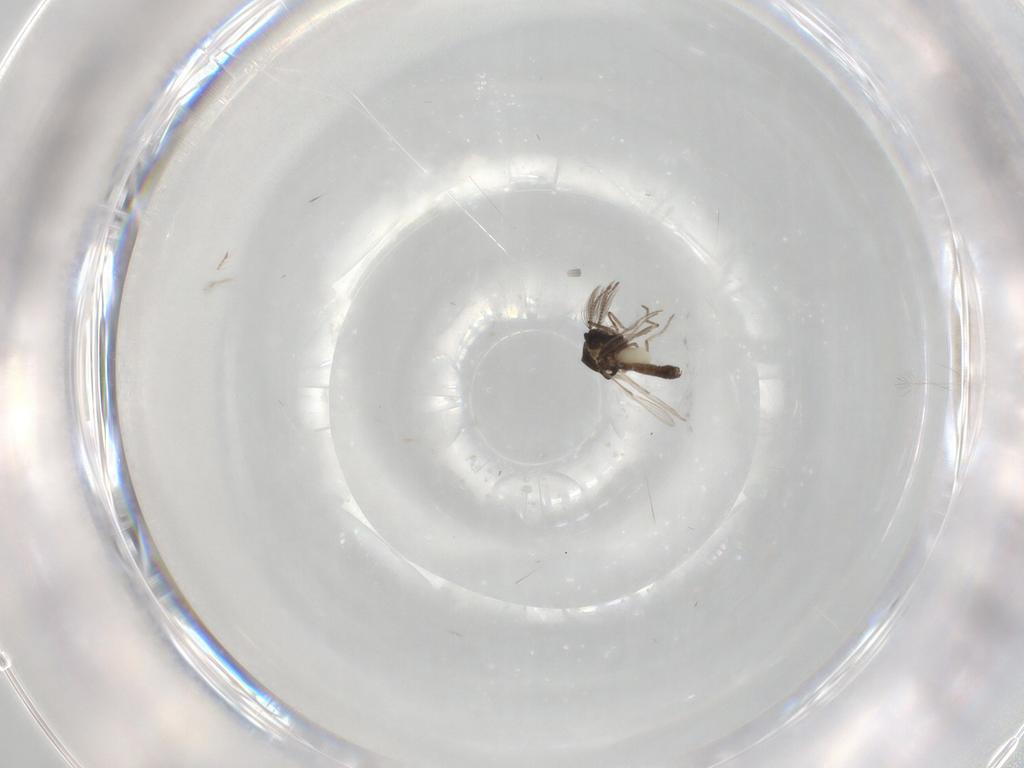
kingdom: Animalia
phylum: Arthropoda
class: Insecta
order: Diptera
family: Ceratopogonidae
